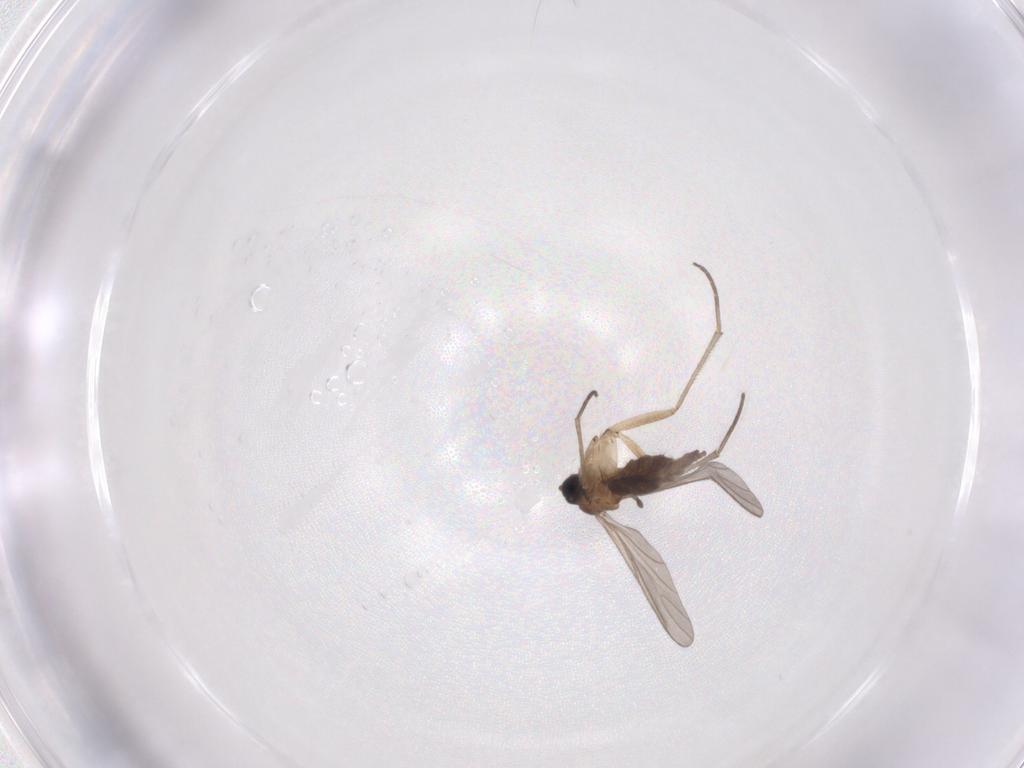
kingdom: Animalia
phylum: Arthropoda
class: Insecta
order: Diptera
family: Sciaridae
